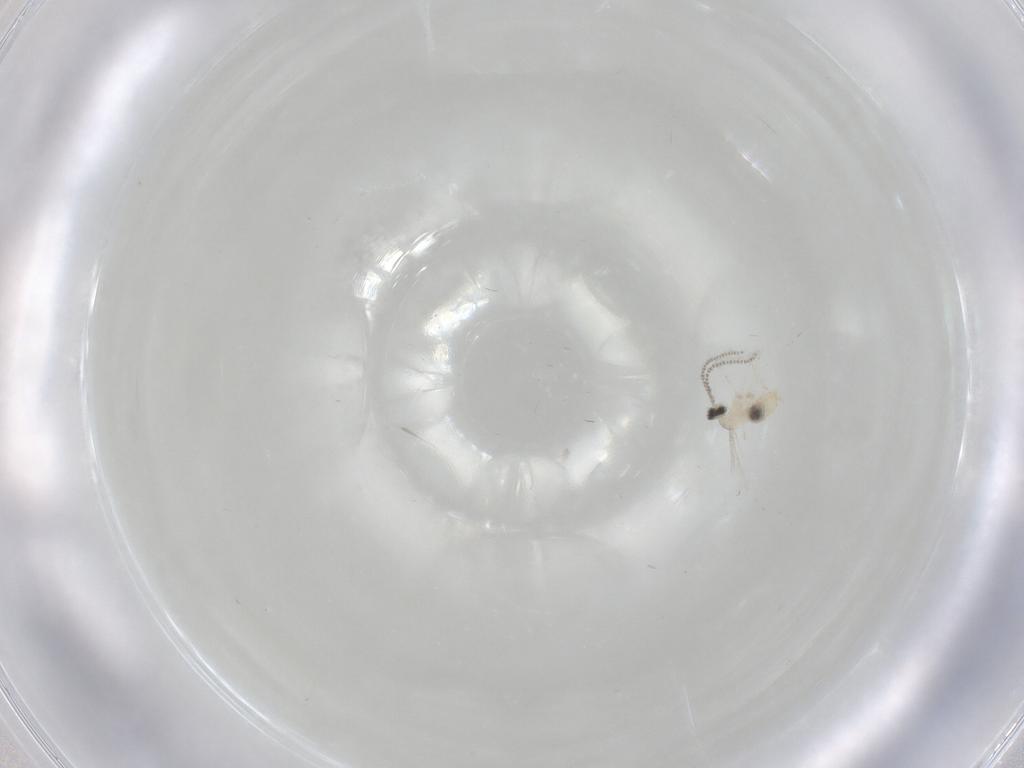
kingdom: Animalia
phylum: Arthropoda
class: Insecta
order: Diptera
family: Cecidomyiidae
